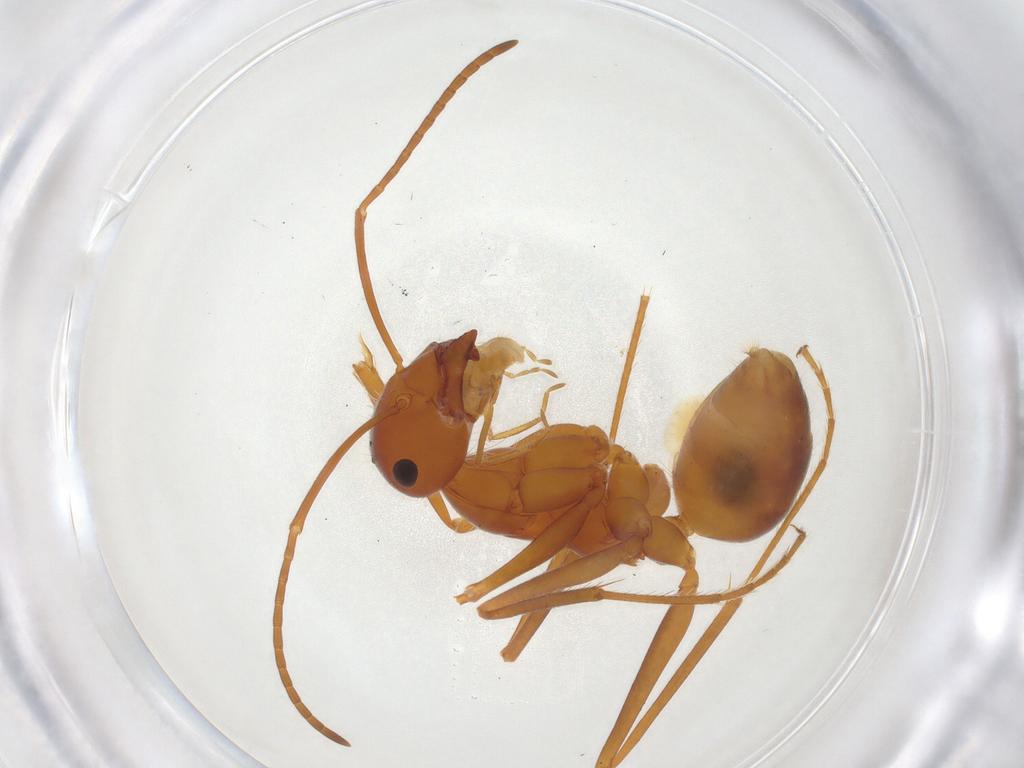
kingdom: Animalia
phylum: Arthropoda
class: Insecta
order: Hymenoptera
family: Formicidae
